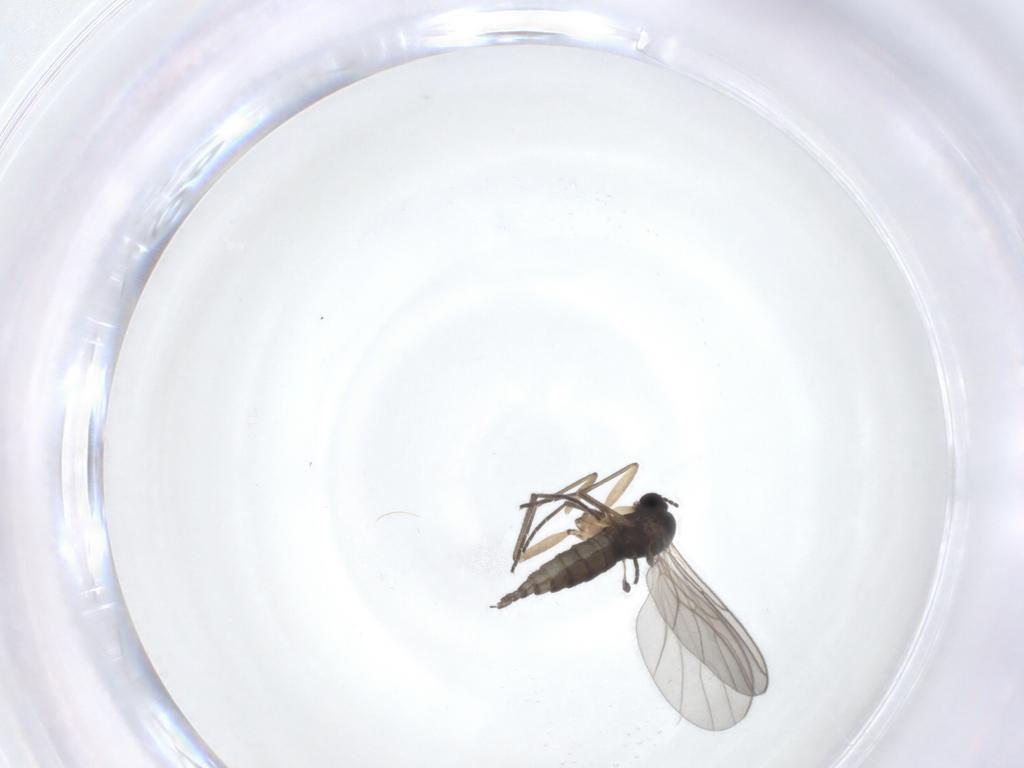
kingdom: Animalia
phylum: Arthropoda
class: Insecta
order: Diptera
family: Sciaridae
